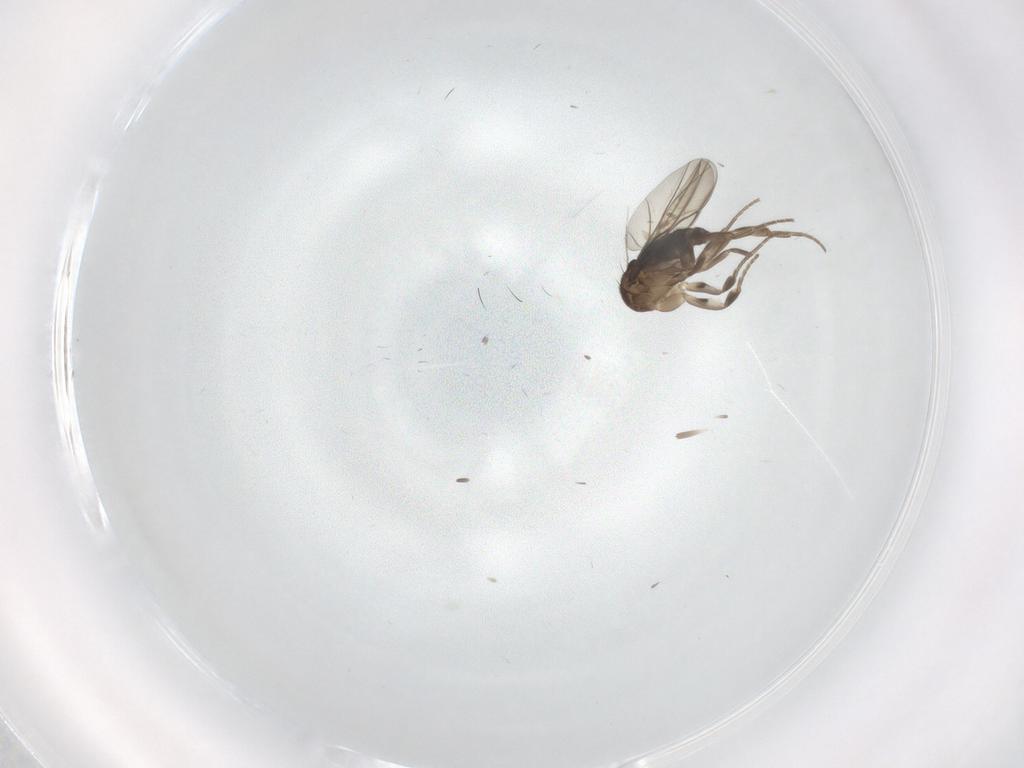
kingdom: Animalia
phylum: Arthropoda
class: Insecta
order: Diptera
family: Phoridae
